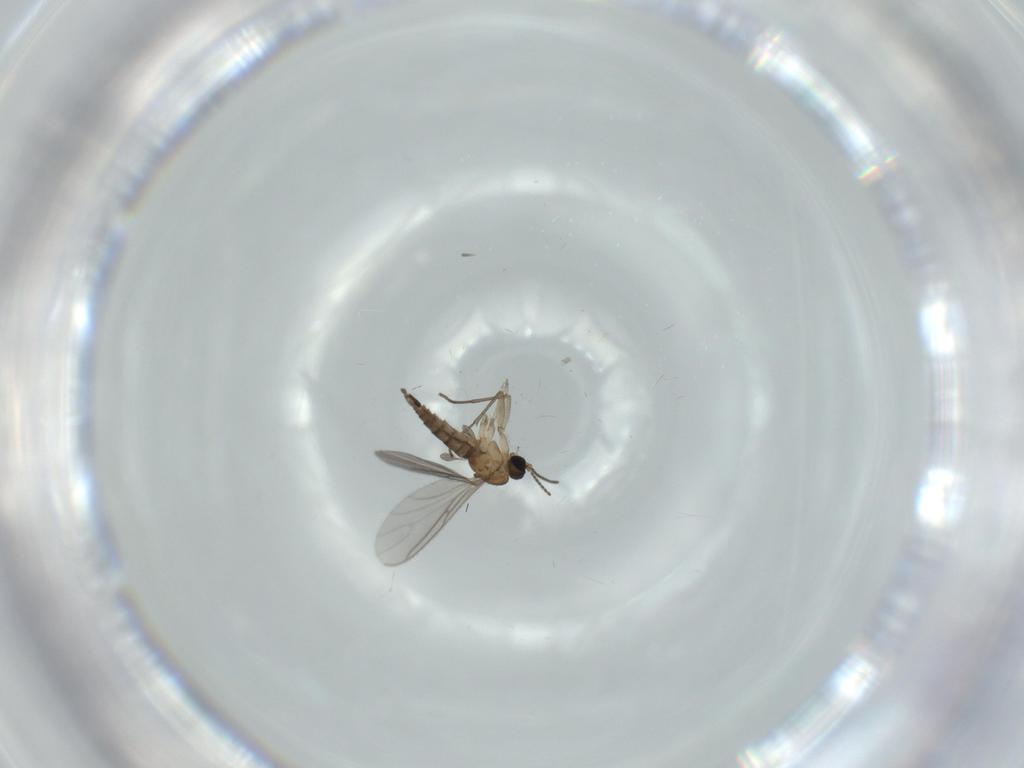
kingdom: Animalia
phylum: Arthropoda
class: Insecta
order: Diptera
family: Sciaridae
